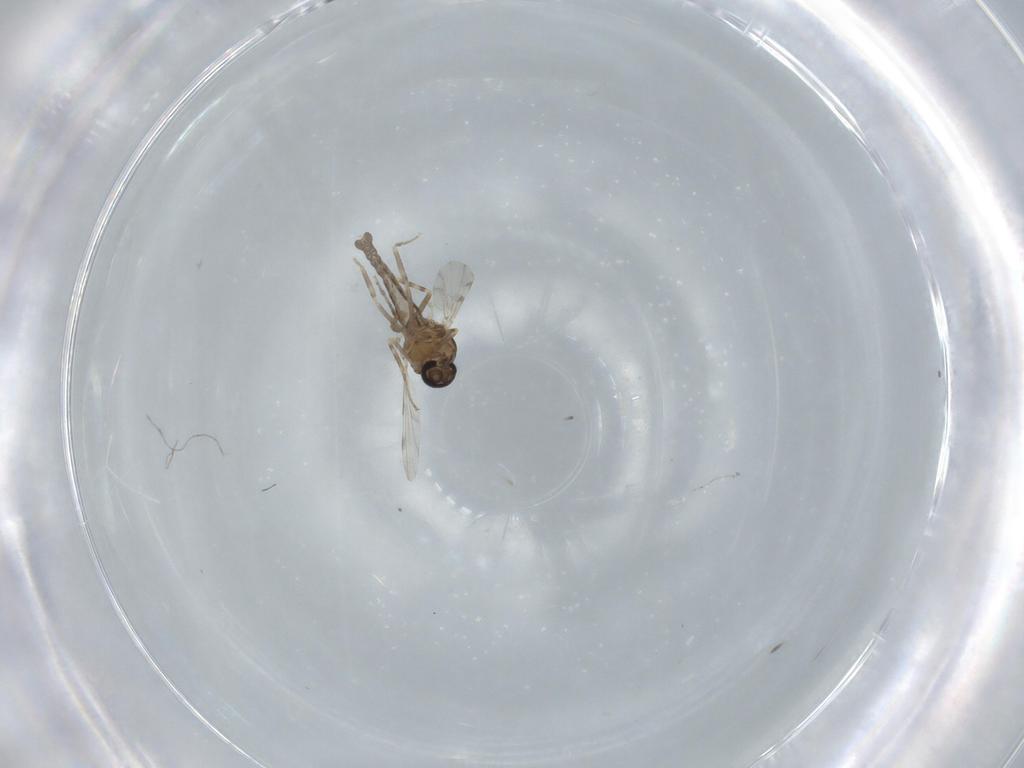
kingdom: Animalia
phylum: Arthropoda
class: Insecta
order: Diptera
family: Ceratopogonidae
